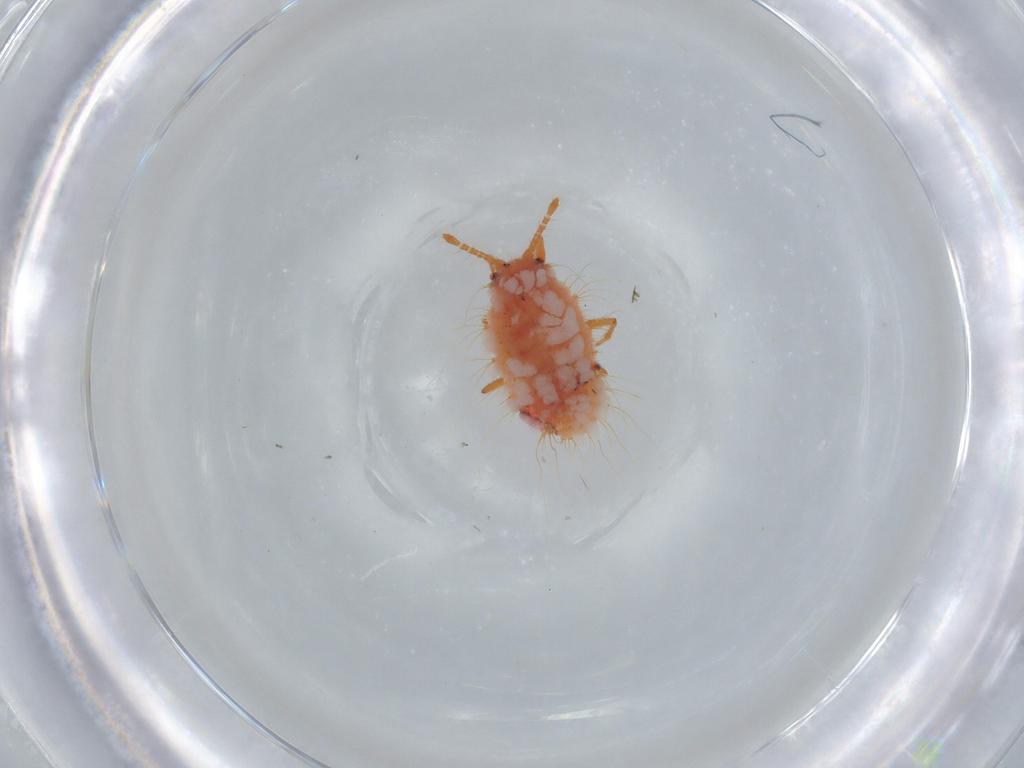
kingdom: Animalia
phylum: Arthropoda
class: Insecta
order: Hemiptera
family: Coccoidea_incertae_sedis
